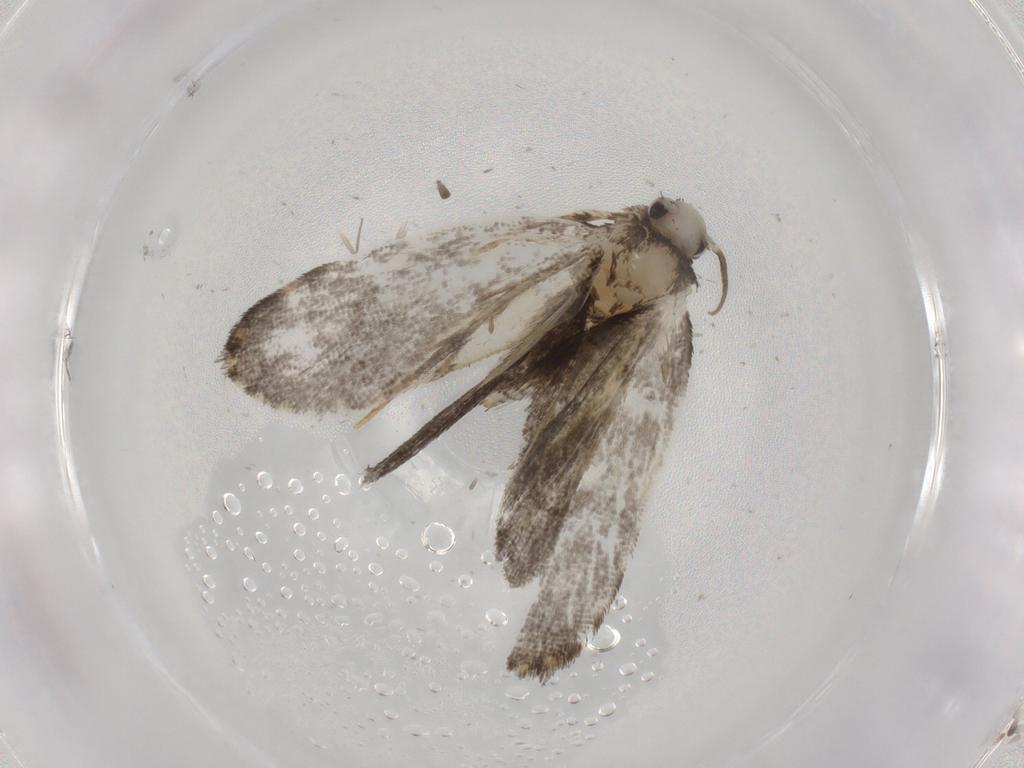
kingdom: Animalia
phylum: Arthropoda
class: Insecta
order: Lepidoptera
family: Psychidae
